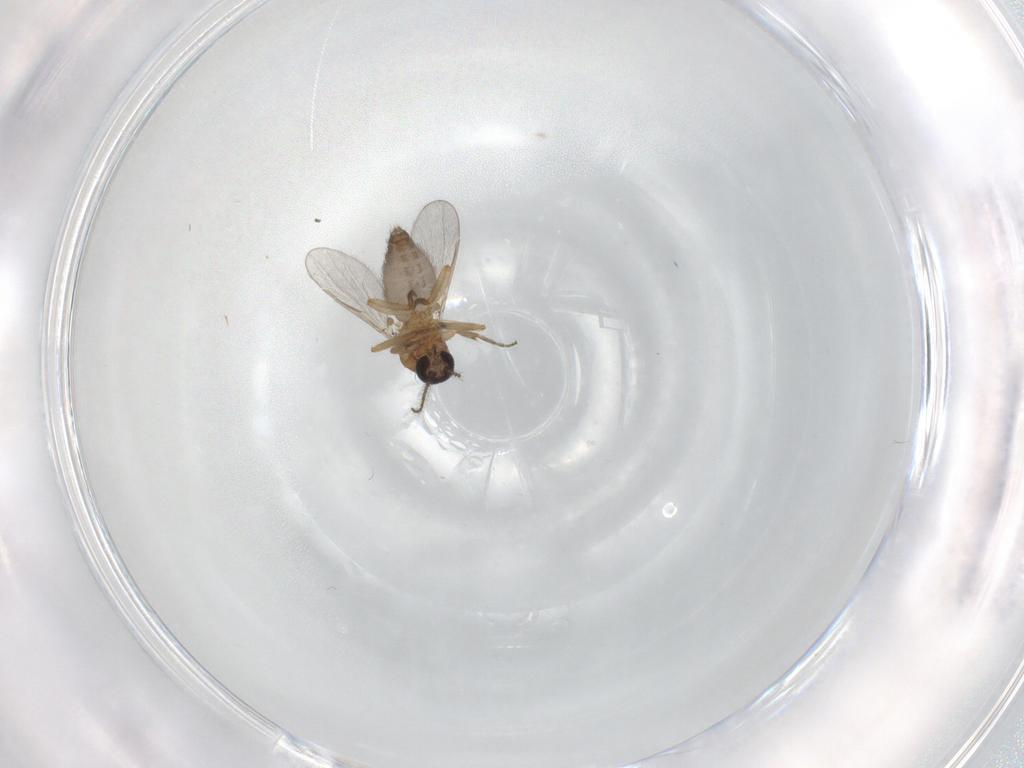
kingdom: Animalia
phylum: Arthropoda
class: Insecta
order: Diptera
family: Ceratopogonidae
